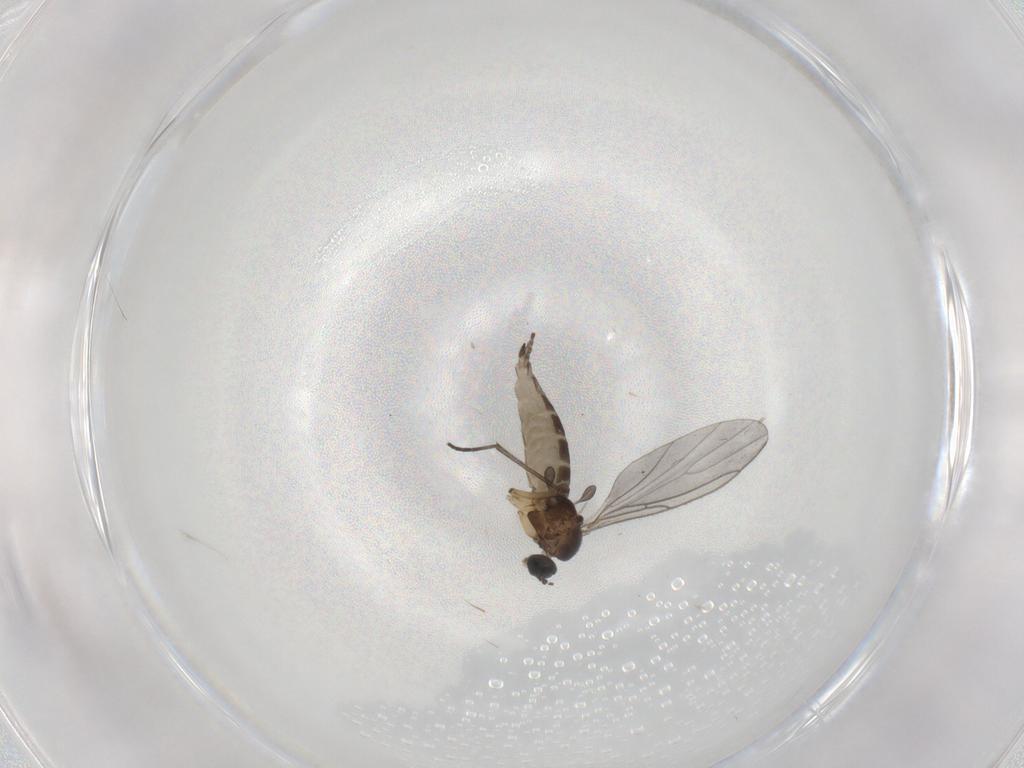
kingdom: Animalia
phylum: Arthropoda
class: Insecta
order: Diptera
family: Sciaridae
